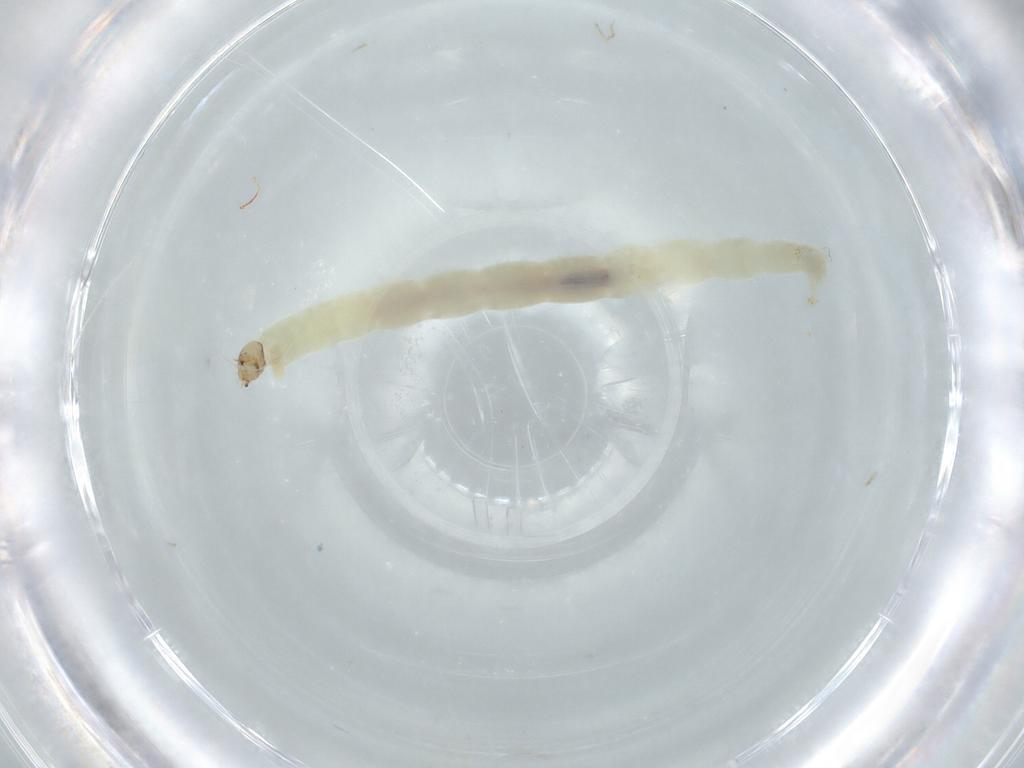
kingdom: Animalia
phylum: Arthropoda
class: Insecta
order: Diptera
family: Chironomidae
